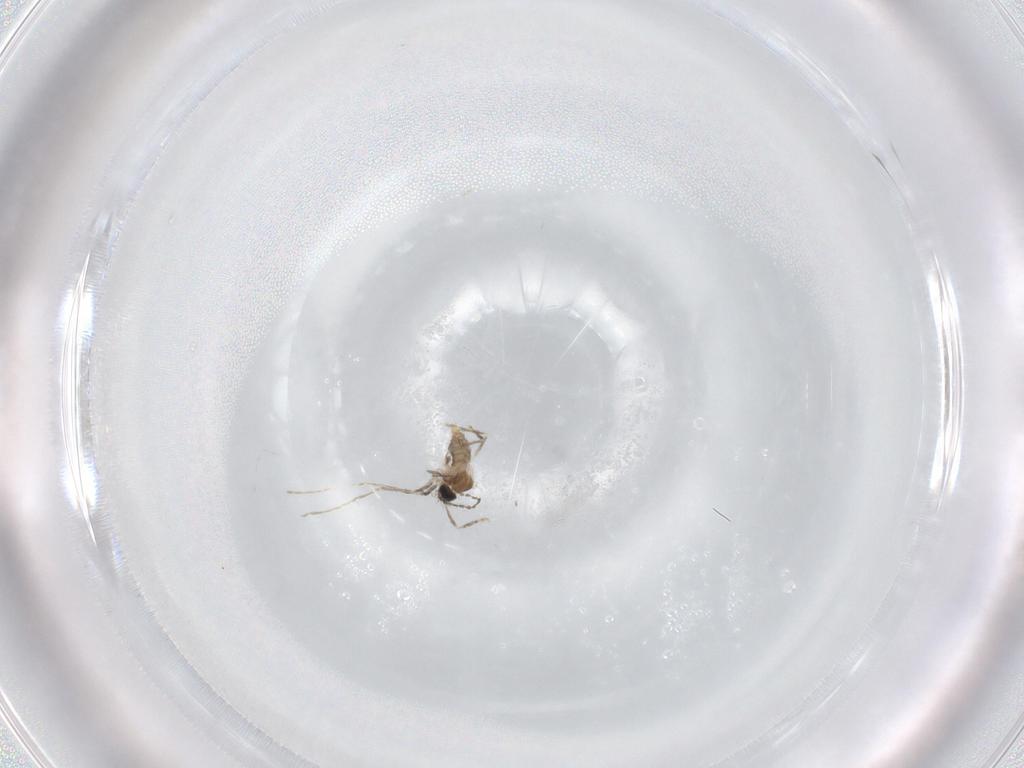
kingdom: Animalia
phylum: Arthropoda
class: Insecta
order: Diptera
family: Cecidomyiidae
